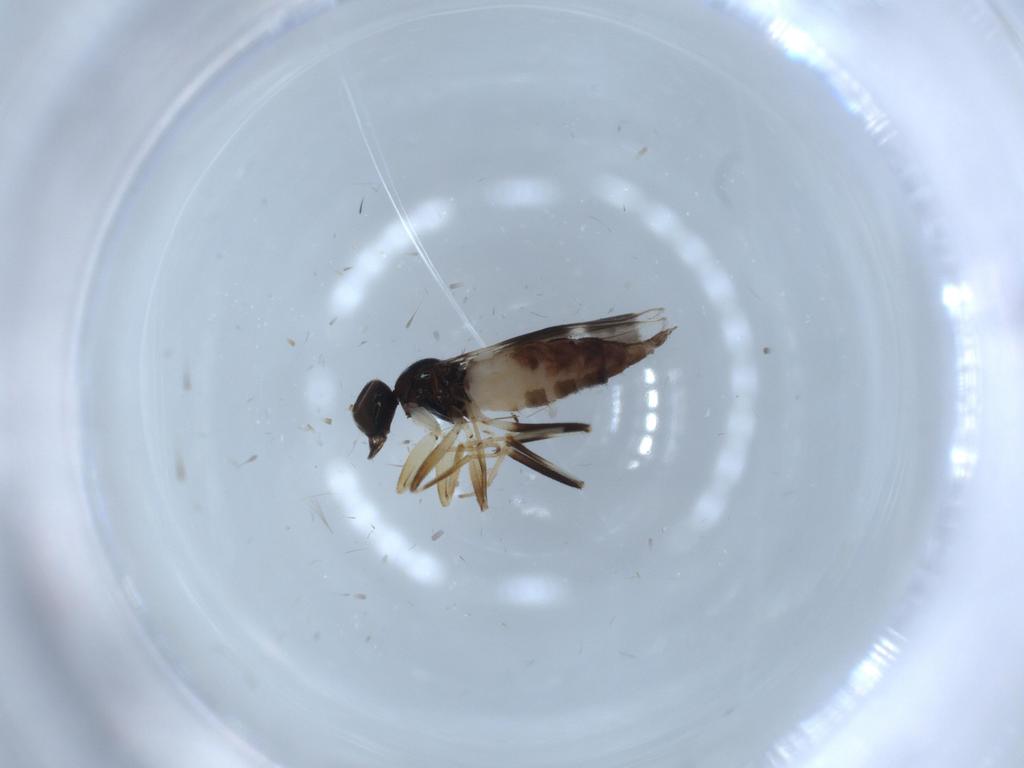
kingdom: Animalia
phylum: Arthropoda
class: Insecta
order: Diptera
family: Hybotidae
